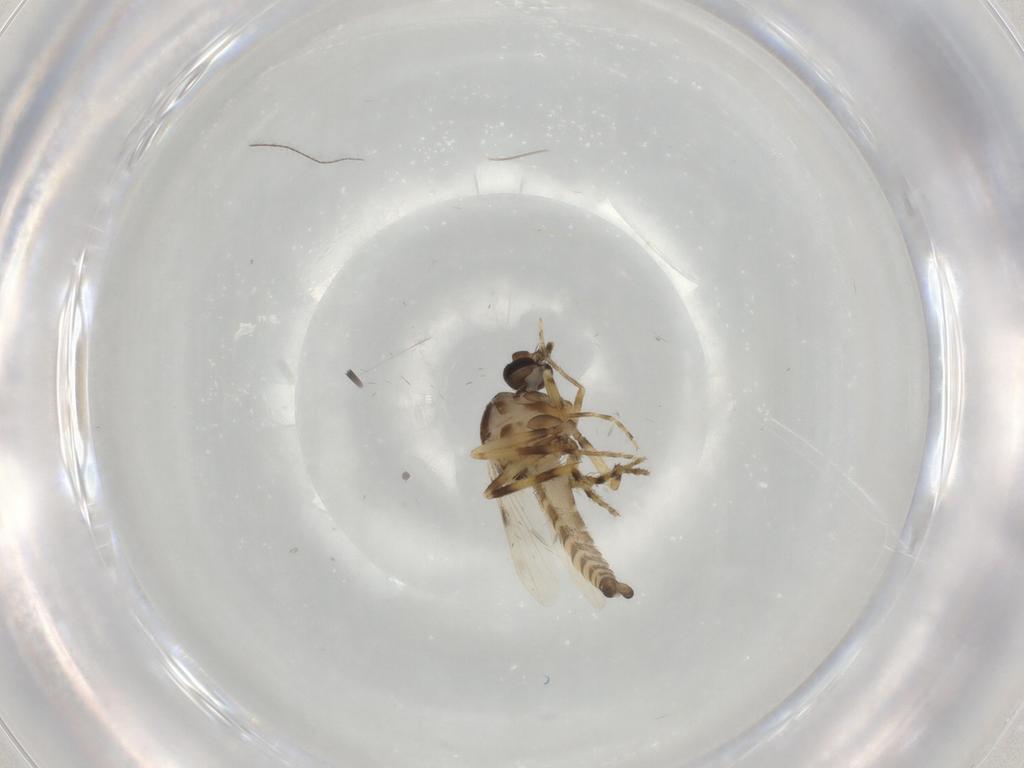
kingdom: Animalia
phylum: Arthropoda
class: Insecta
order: Diptera
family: Ceratopogonidae
